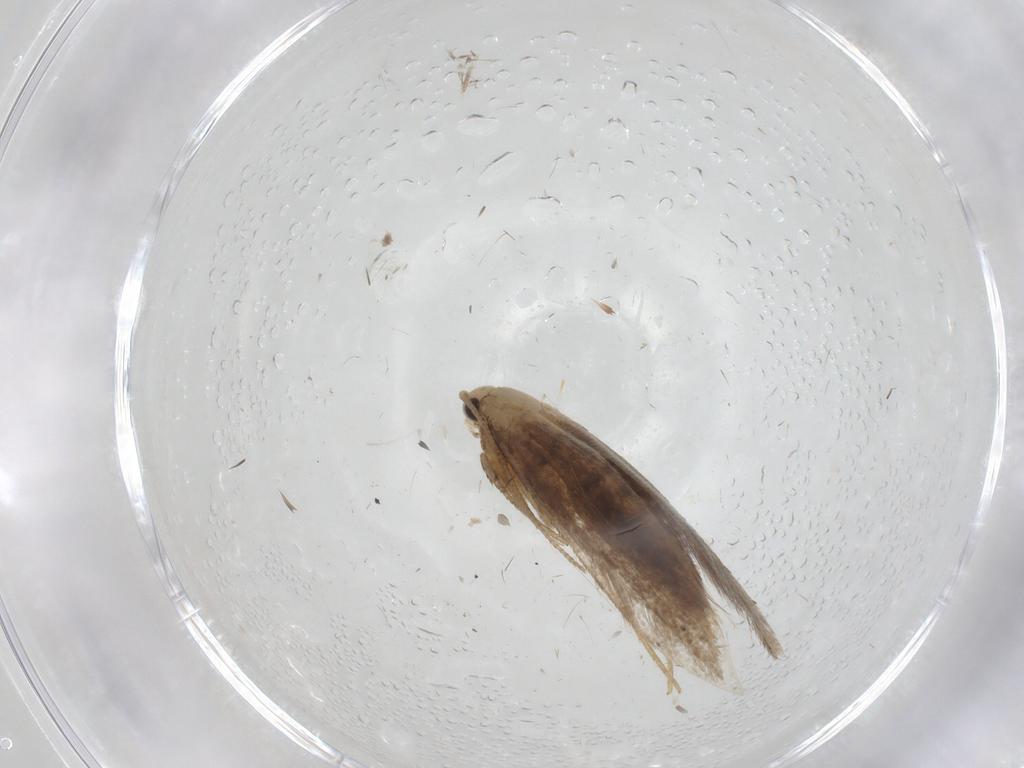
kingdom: Animalia
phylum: Arthropoda
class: Insecta
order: Lepidoptera
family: Tineidae
